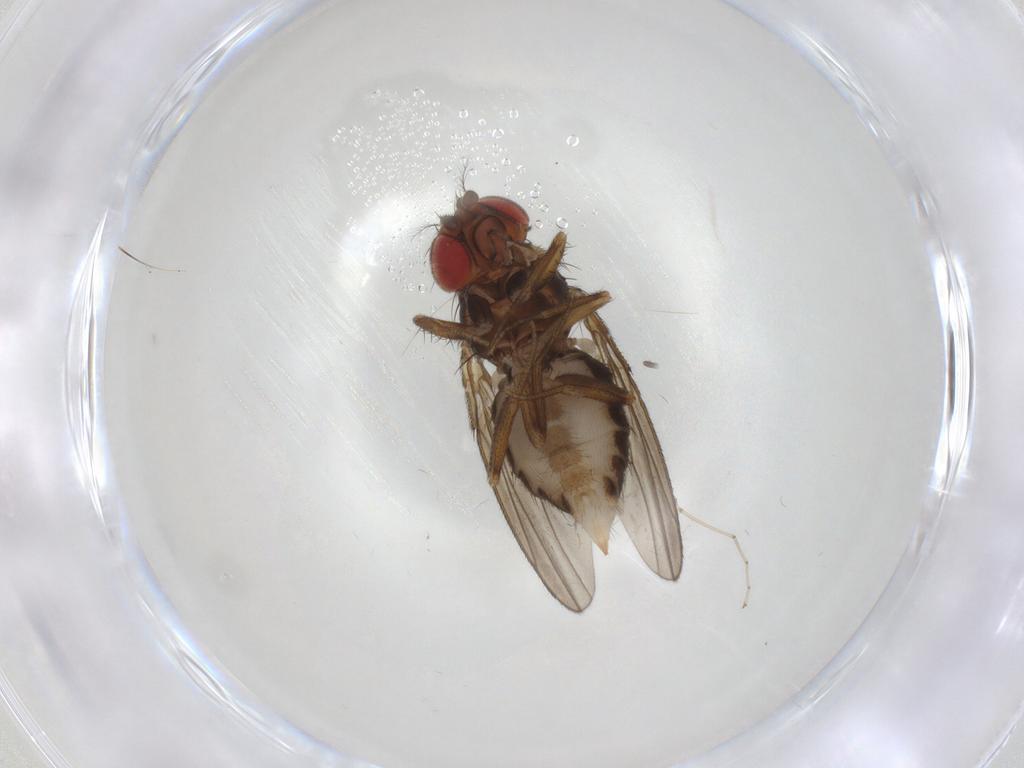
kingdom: Animalia
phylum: Arthropoda
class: Insecta
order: Diptera
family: Drosophilidae
